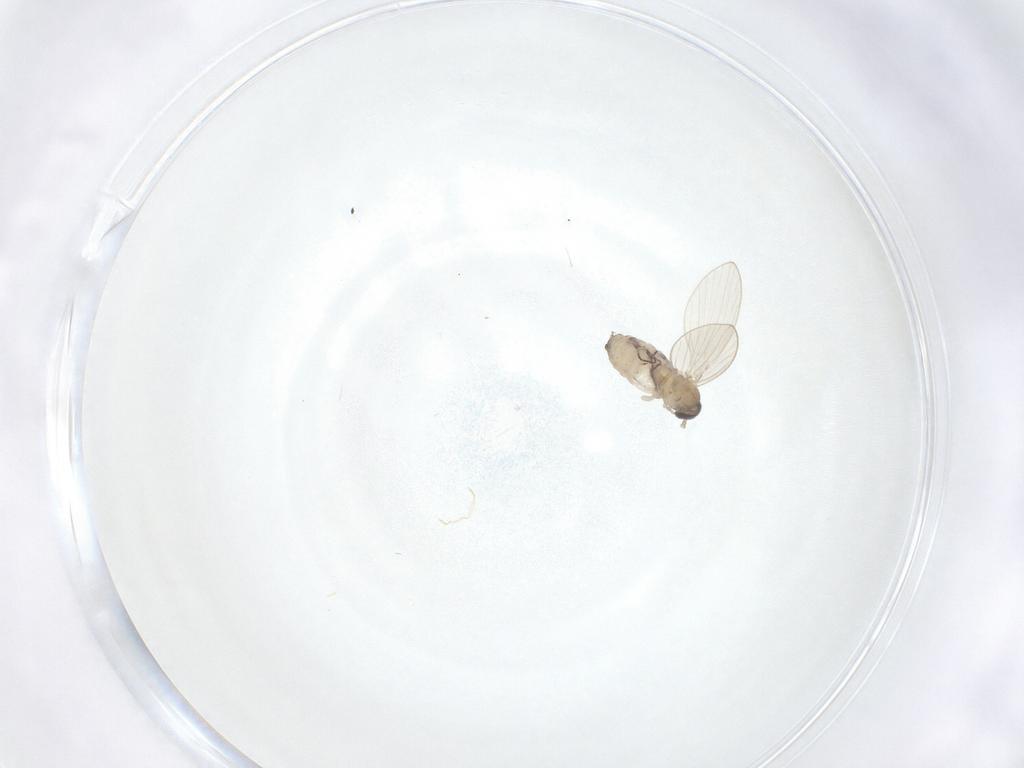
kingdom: Animalia
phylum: Arthropoda
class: Insecta
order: Diptera
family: Psychodidae
